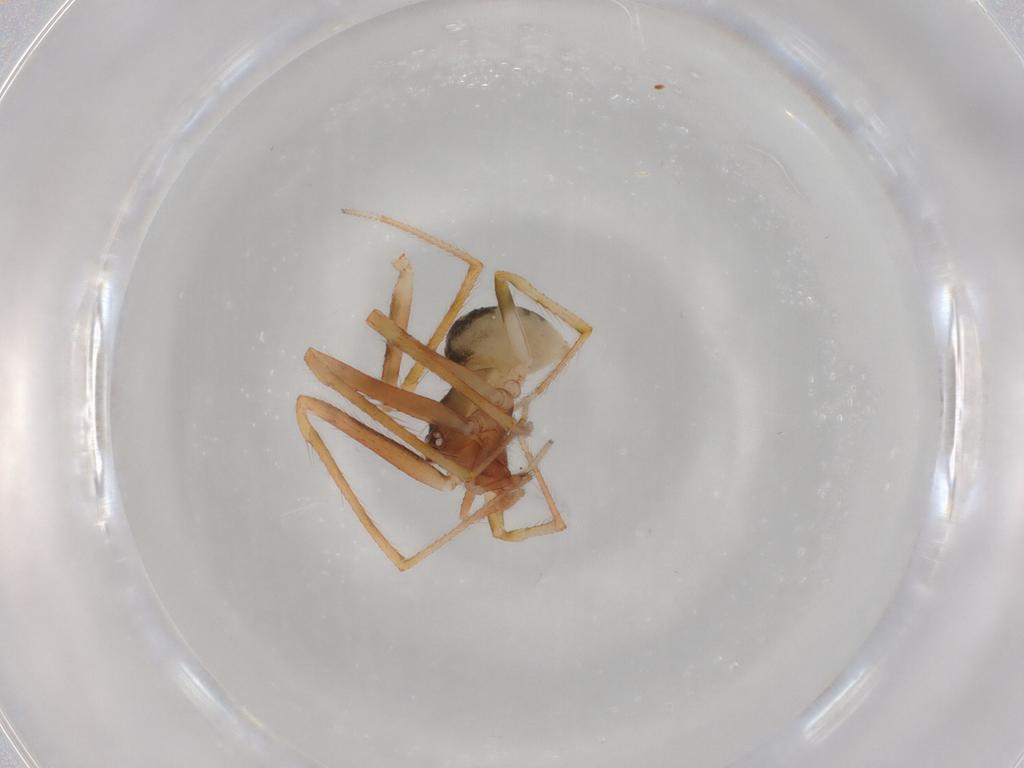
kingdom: Animalia
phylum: Arthropoda
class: Arachnida
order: Araneae
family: Theridiidae
